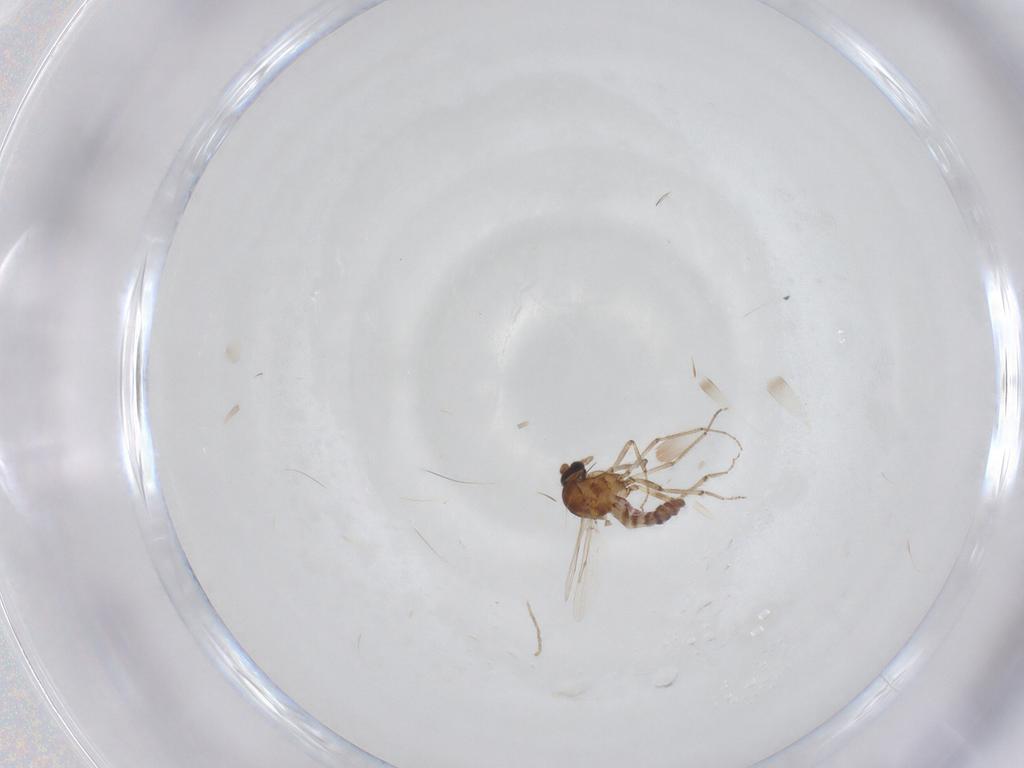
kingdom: Animalia
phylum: Arthropoda
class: Insecta
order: Diptera
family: Ceratopogonidae
